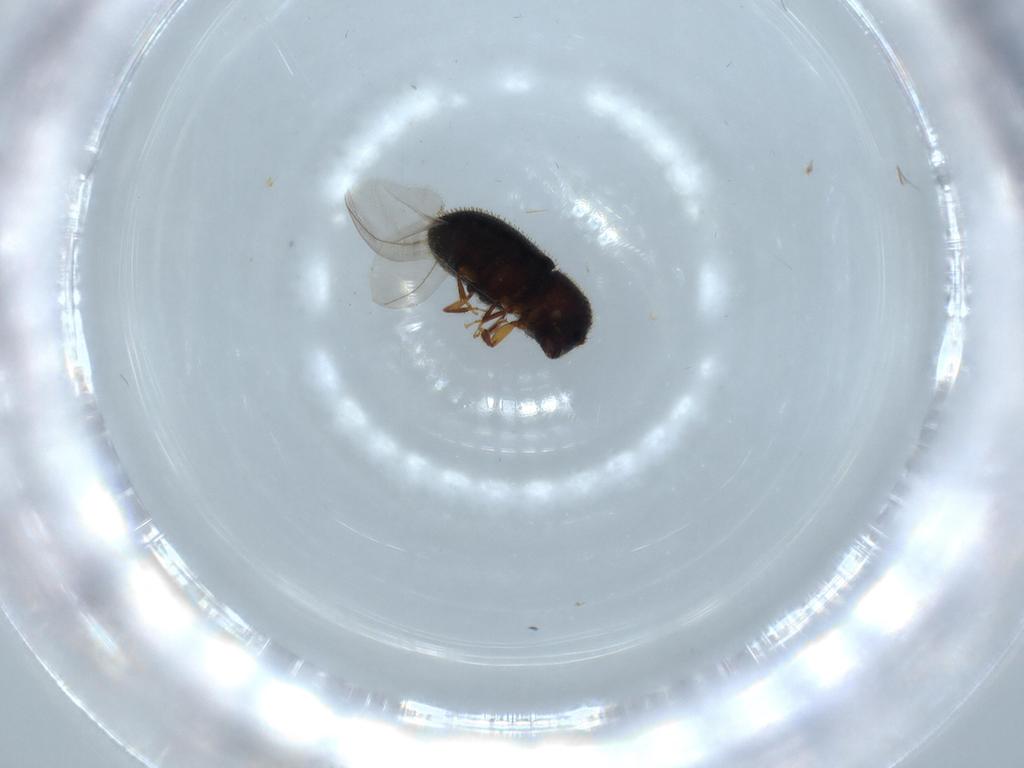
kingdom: Animalia
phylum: Arthropoda
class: Insecta
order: Coleoptera
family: Curculionidae
